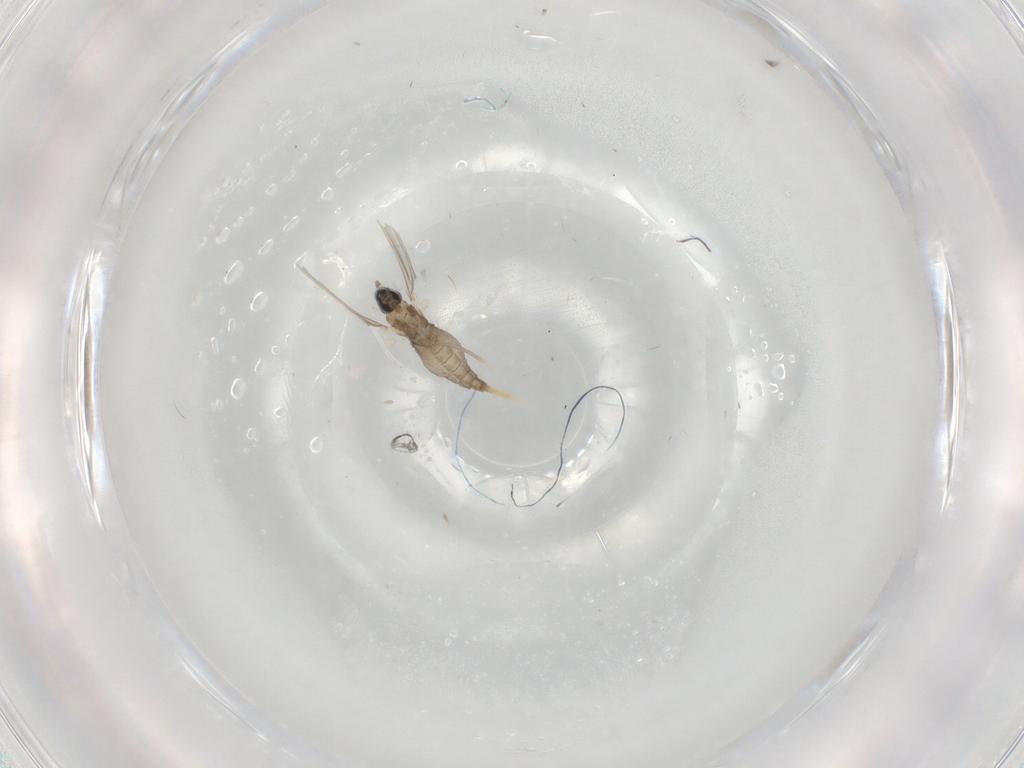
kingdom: Animalia
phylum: Arthropoda
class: Insecta
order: Diptera
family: Cecidomyiidae
